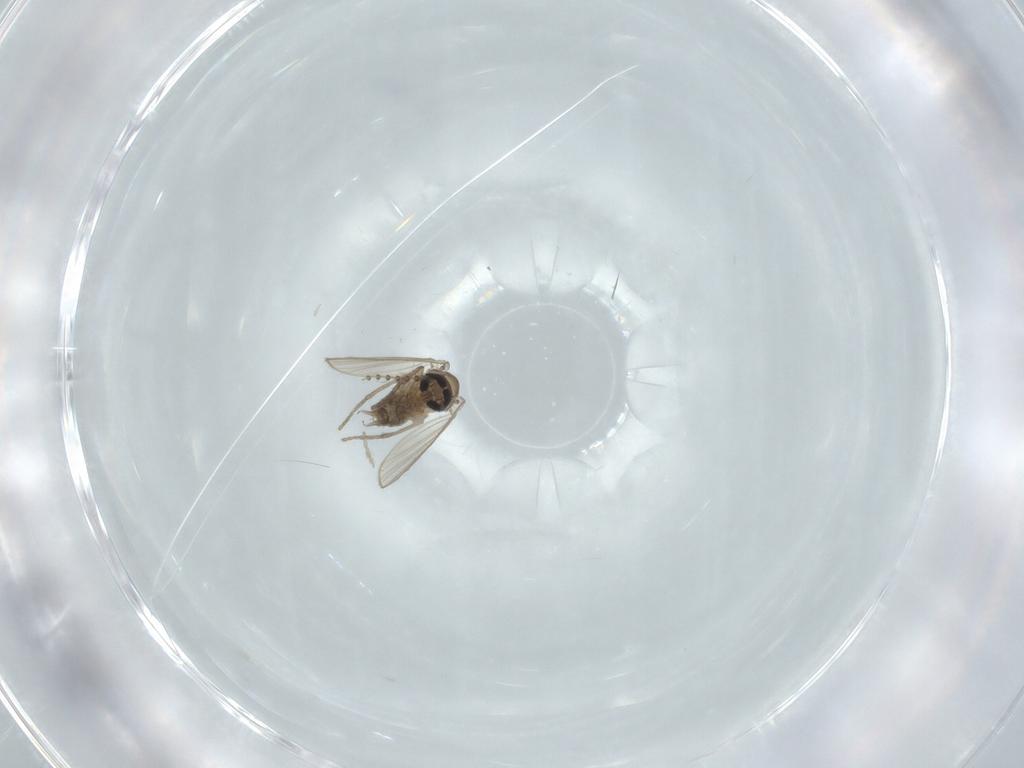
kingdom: Animalia
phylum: Arthropoda
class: Insecta
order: Diptera
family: Psychodidae
